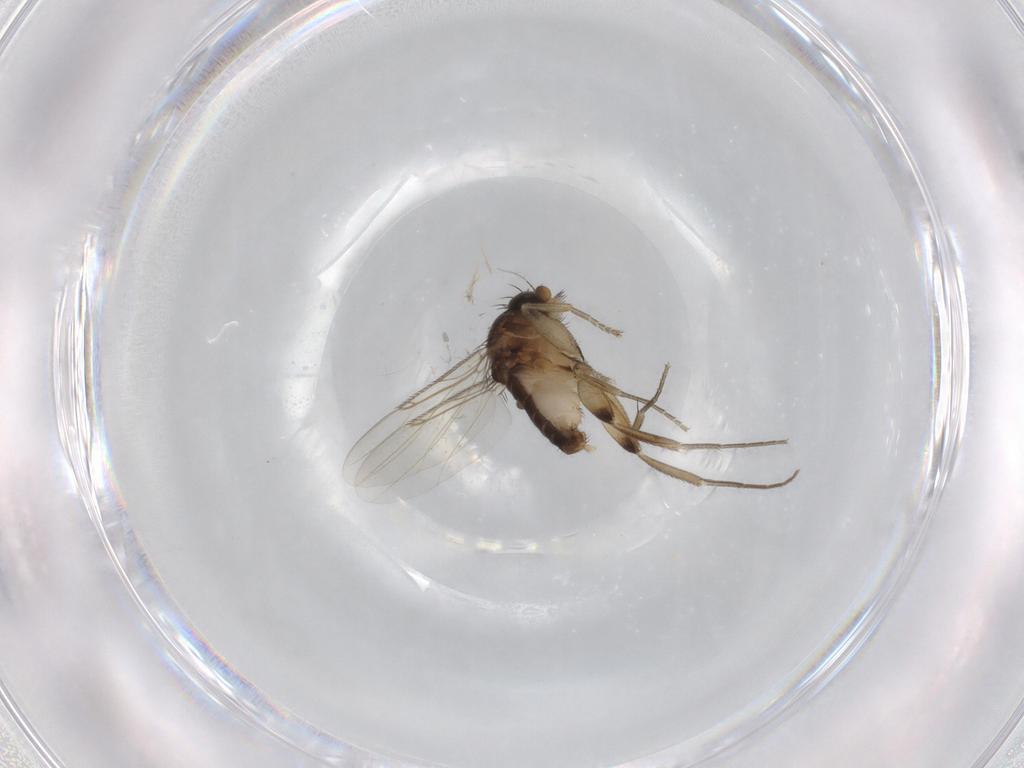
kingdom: Animalia
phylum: Arthropoda
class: Insecta
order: Diptera
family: Phoridae
